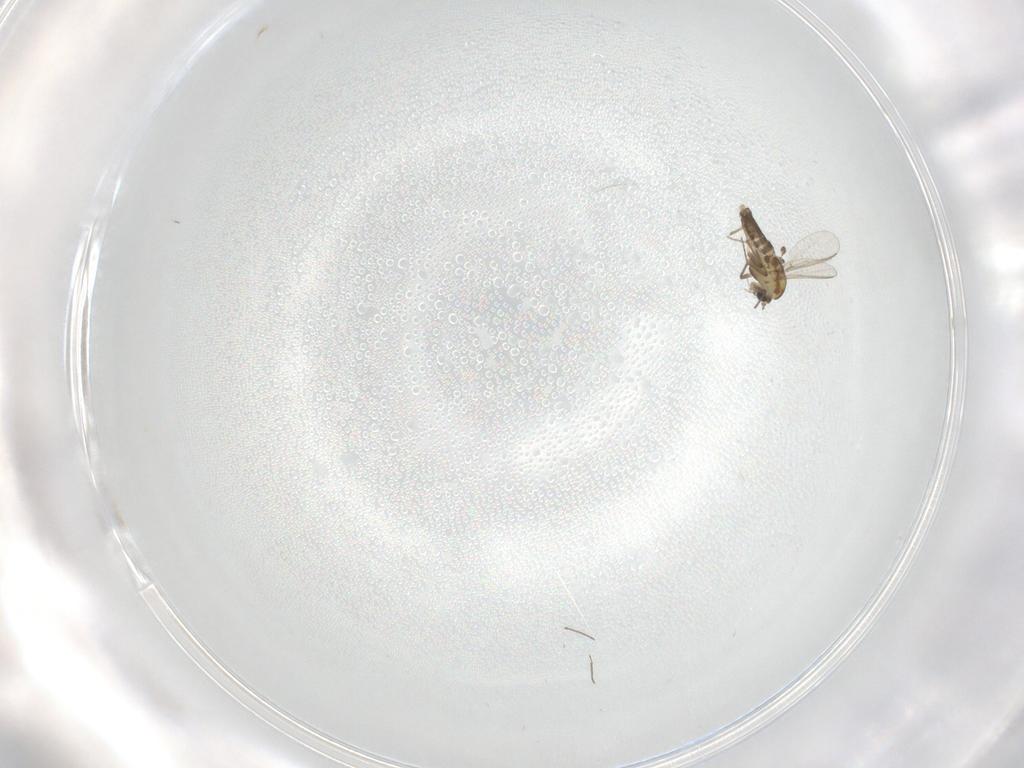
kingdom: Animalia
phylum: Arthropoda
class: Insecta
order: Diptera
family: Chironomidae
